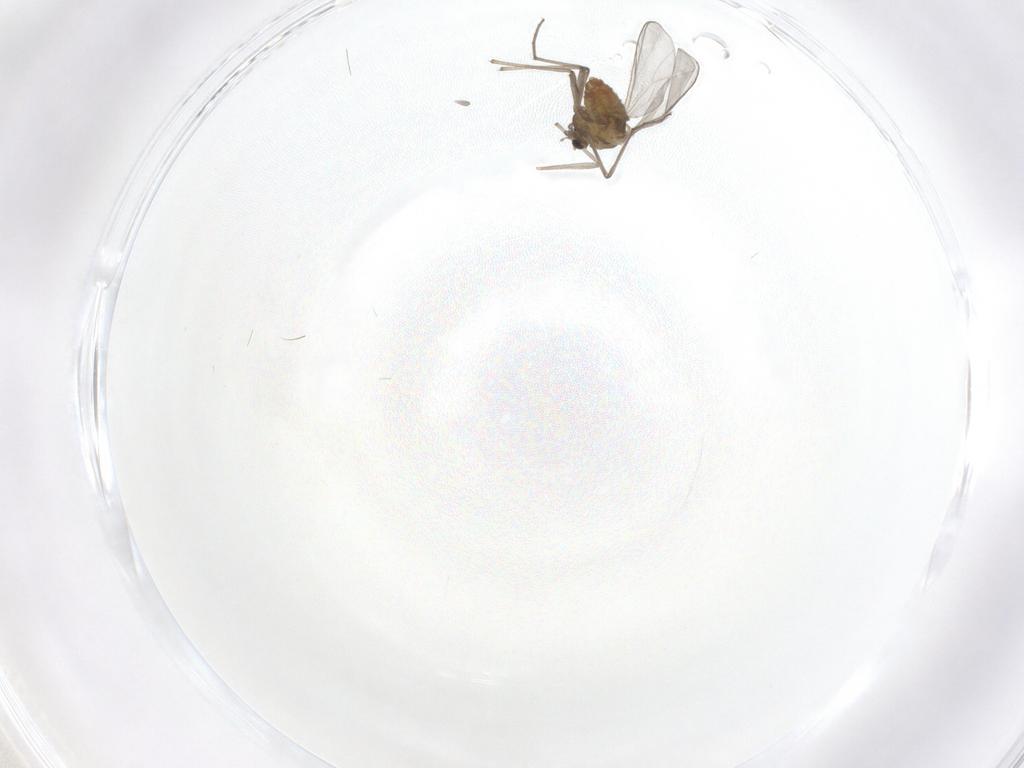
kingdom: Animalia
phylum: Arthropoda
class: Insecta
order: Diptera
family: Chironomidae
